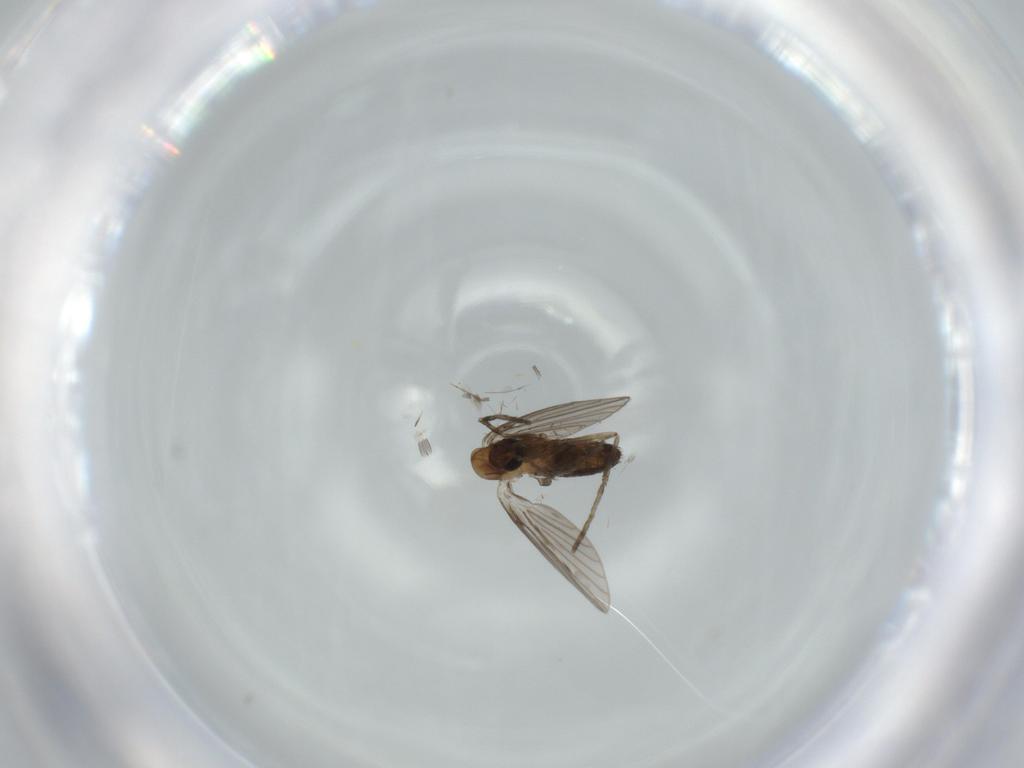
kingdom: Animalia
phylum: Arthropoda
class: Insecta
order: Diptera
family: Psychodidae
